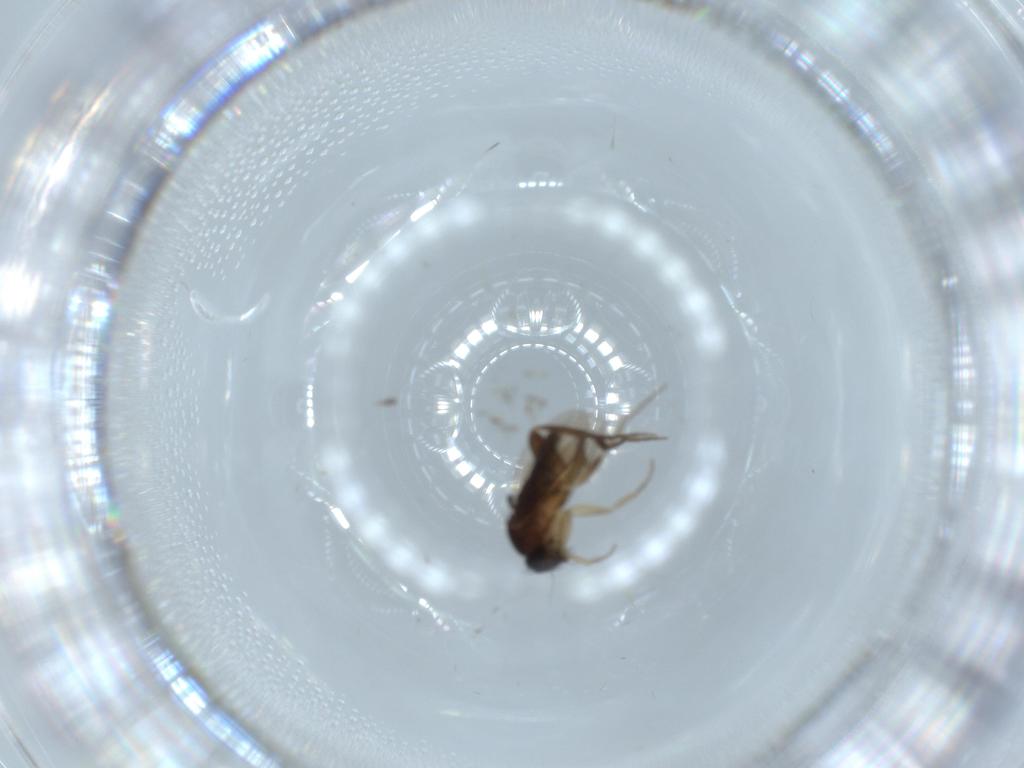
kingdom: Animalia
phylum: Arthropoda
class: Insecta
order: Diptera
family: Phoridae
